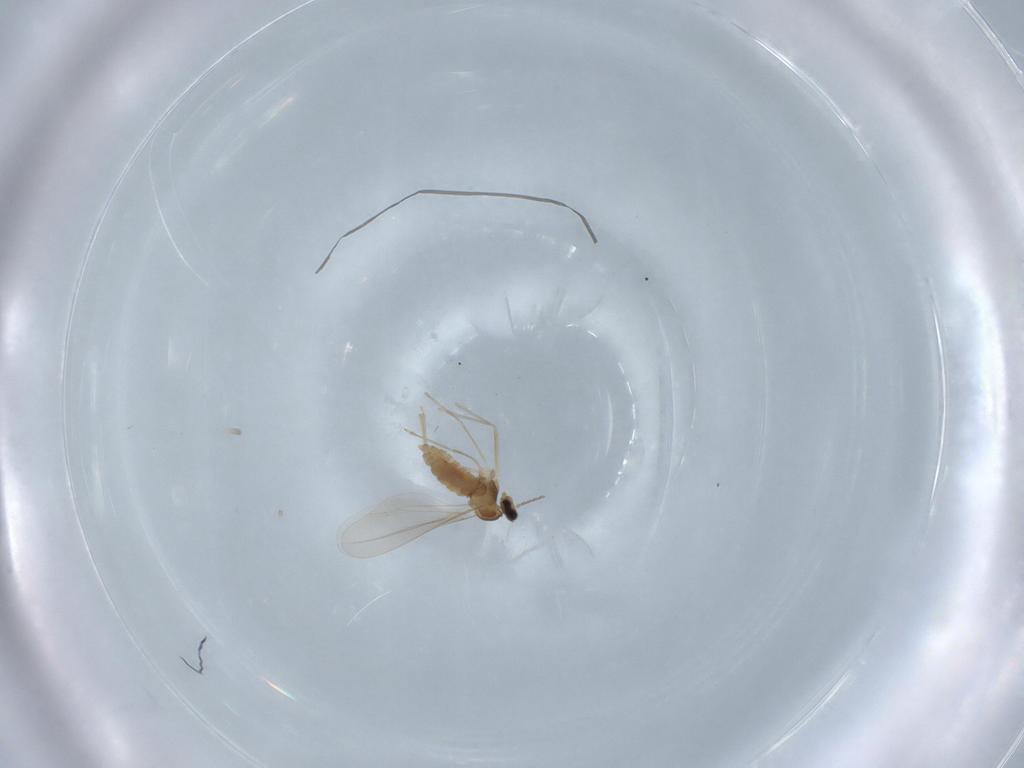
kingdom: Animalia
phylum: Arthropoda
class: Insecta
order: Diptera
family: Cecidomyiidae
